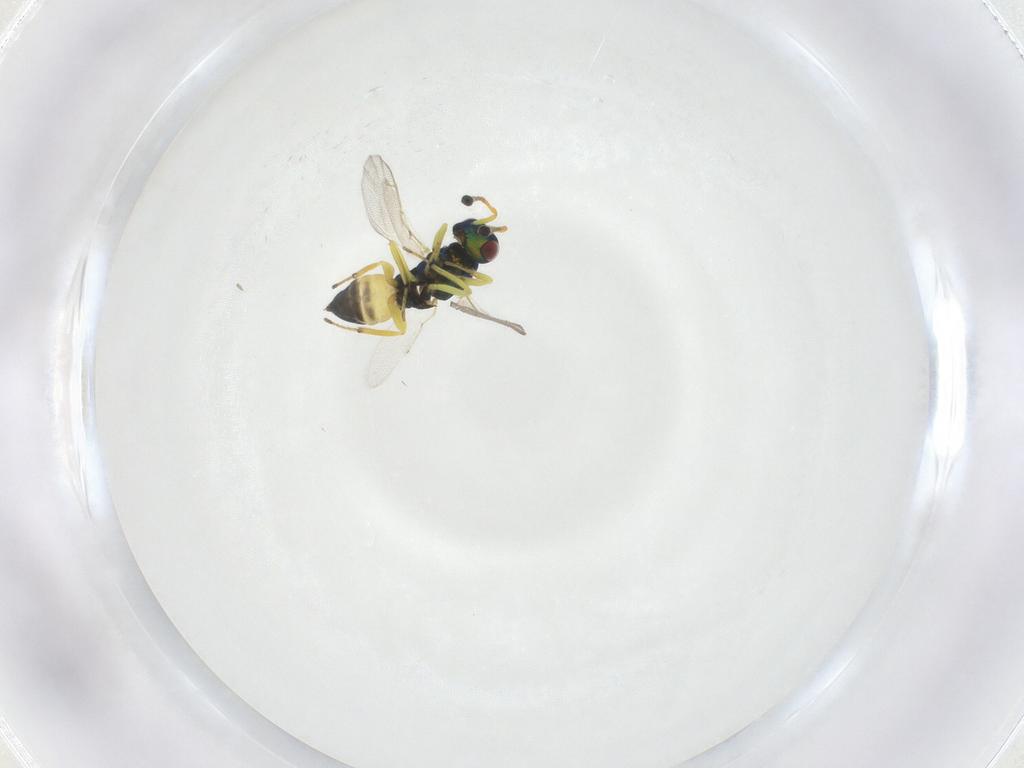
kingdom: Animalia
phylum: Arthropoda
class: Insecta
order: Hymenoptera
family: Pteromalidae
